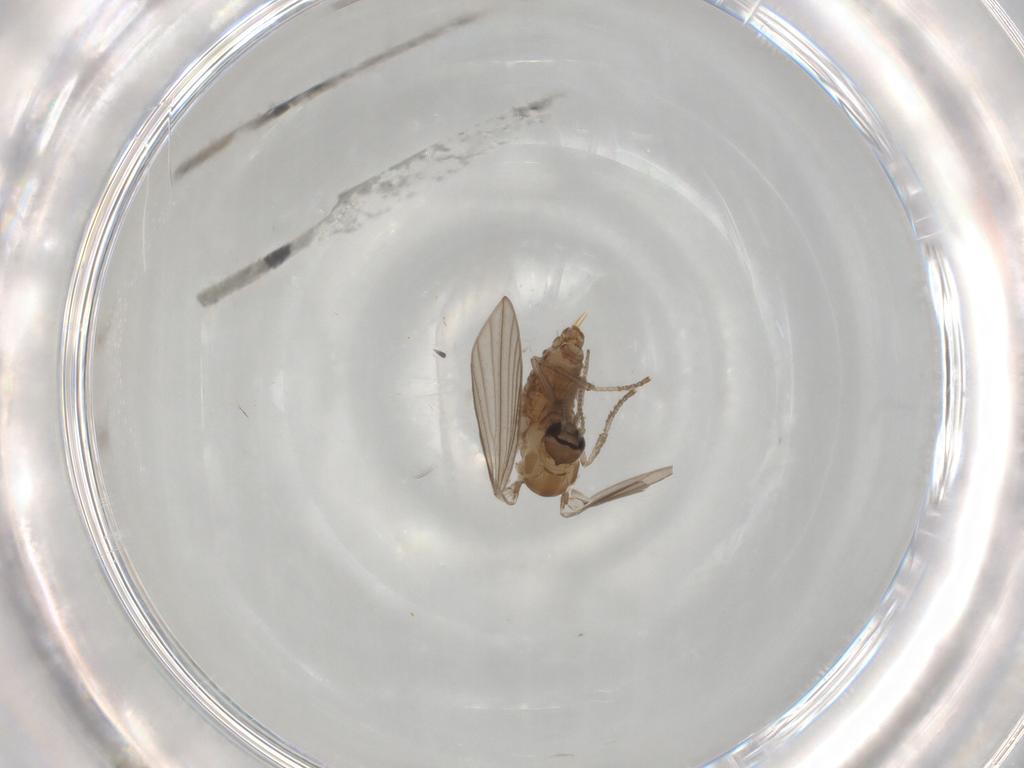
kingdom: Animalia
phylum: Arthropoda
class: Insecta
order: Diptera
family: Psychodidae
